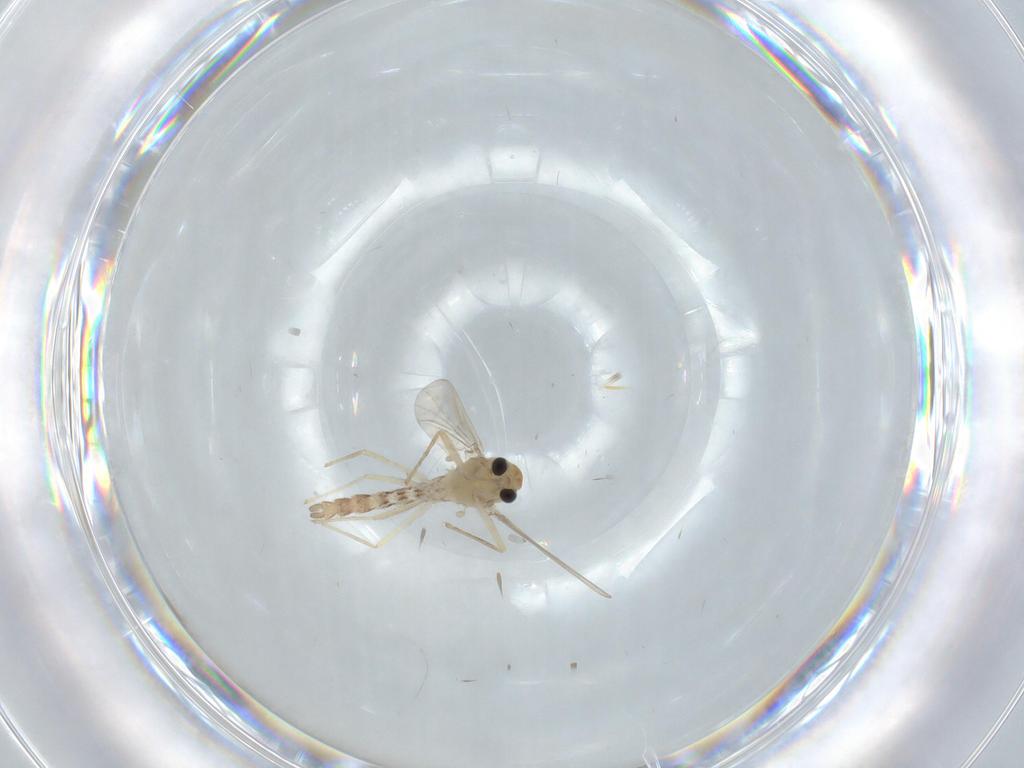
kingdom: Animalia
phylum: Arthropoda
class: Insecta
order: Diptera
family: Chironomidae
